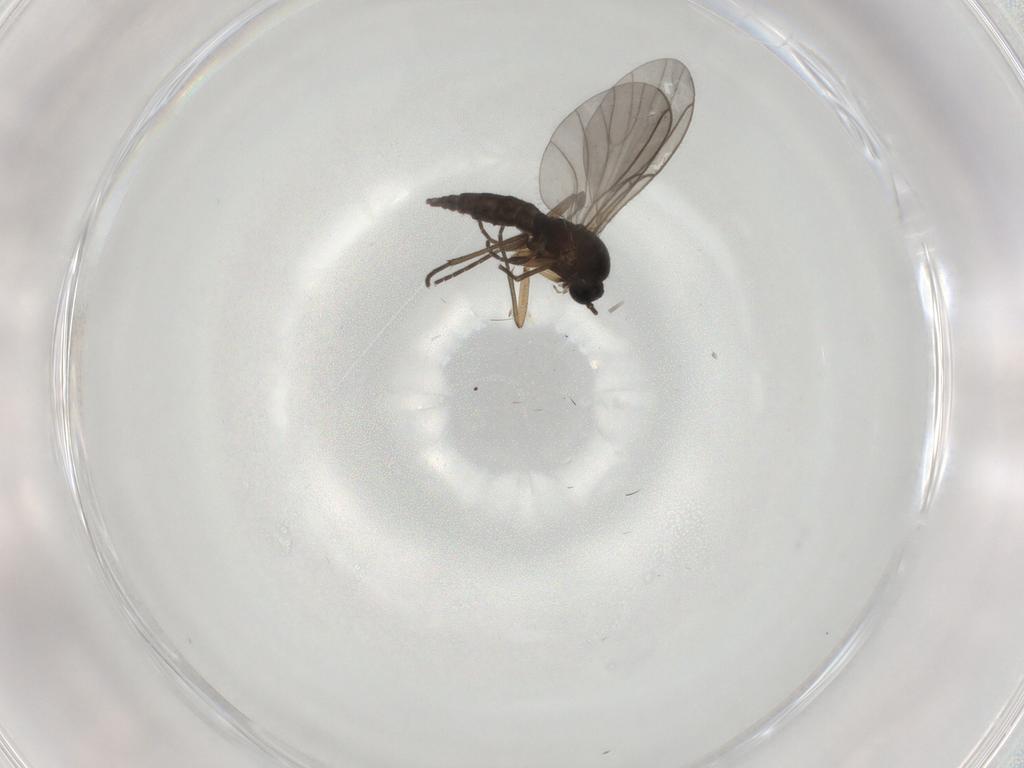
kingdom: Animalia
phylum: Arthropoda
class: Insecta
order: Diptera
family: Sciaridae
